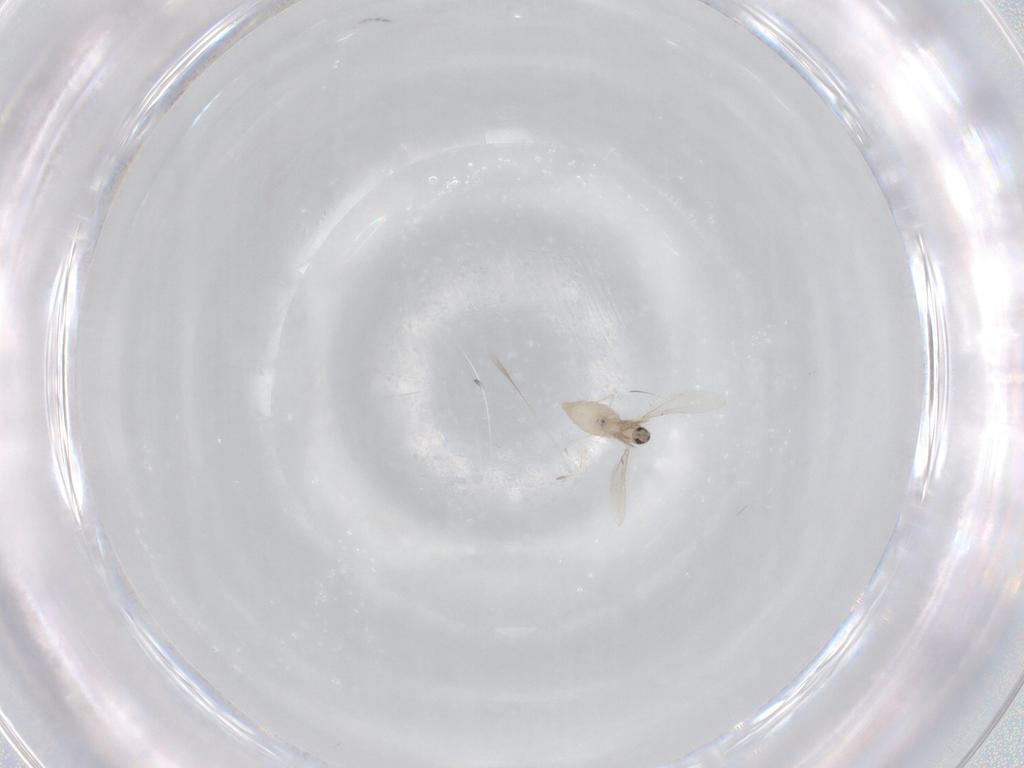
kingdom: Animalia
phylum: Arthropoda
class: Insecta
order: Diptera
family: Cecidomyiidae
